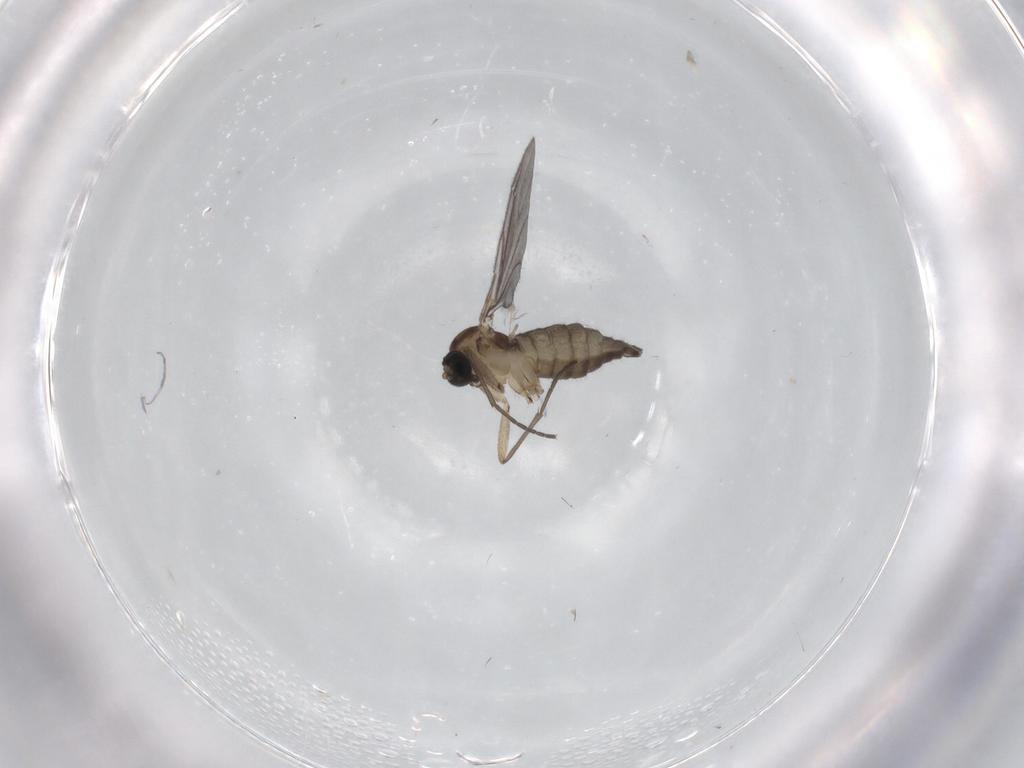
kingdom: Animalia
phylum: Arthropoda
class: Insecta
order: Diptera
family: Sciaridae
